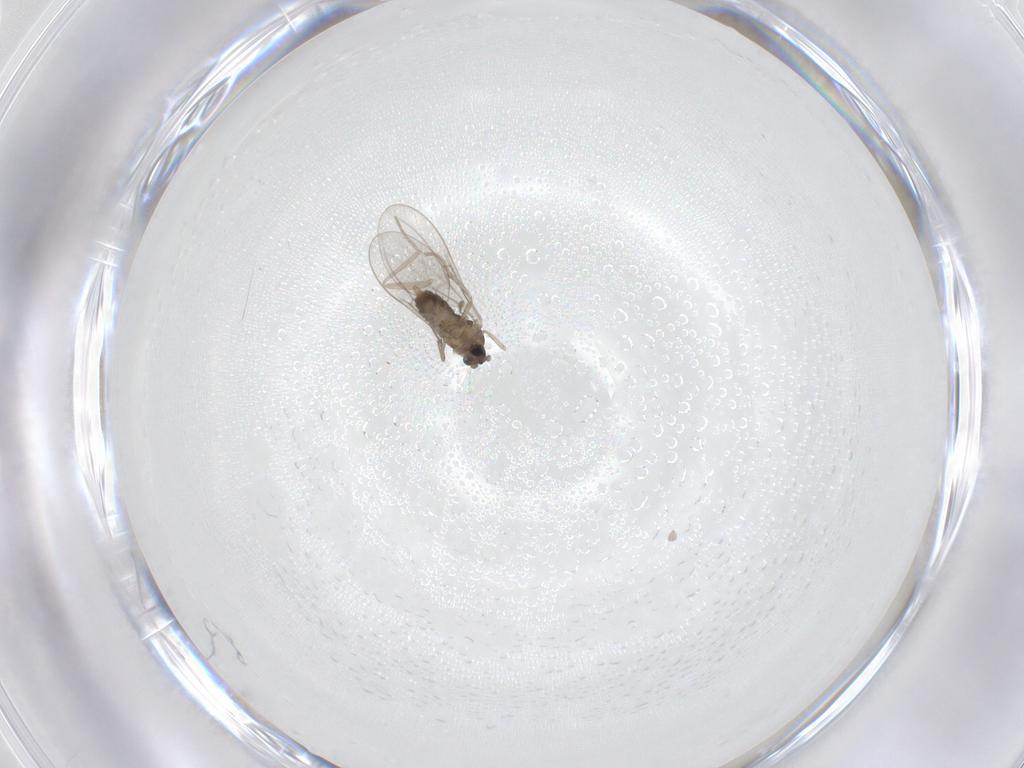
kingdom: Animalia
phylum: Arthropoda
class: Insecta
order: Diptera
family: Cecidomyiidae
